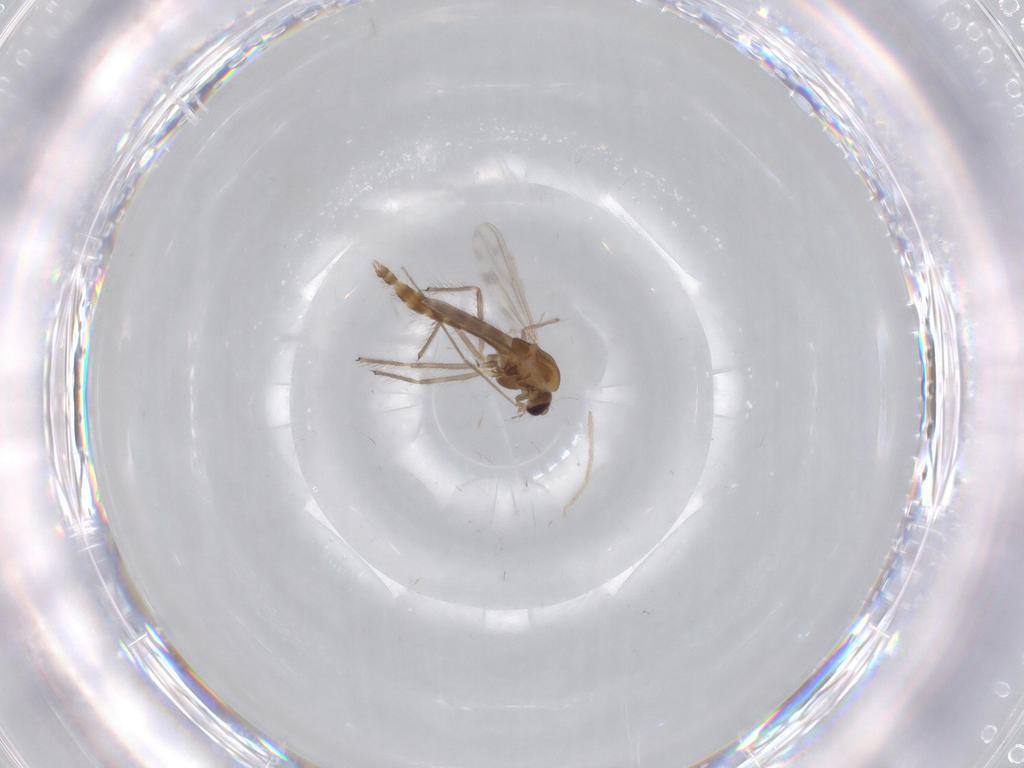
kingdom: Animalia
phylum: Arthropoda
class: Insecta
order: Diptera
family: Chironomidae
